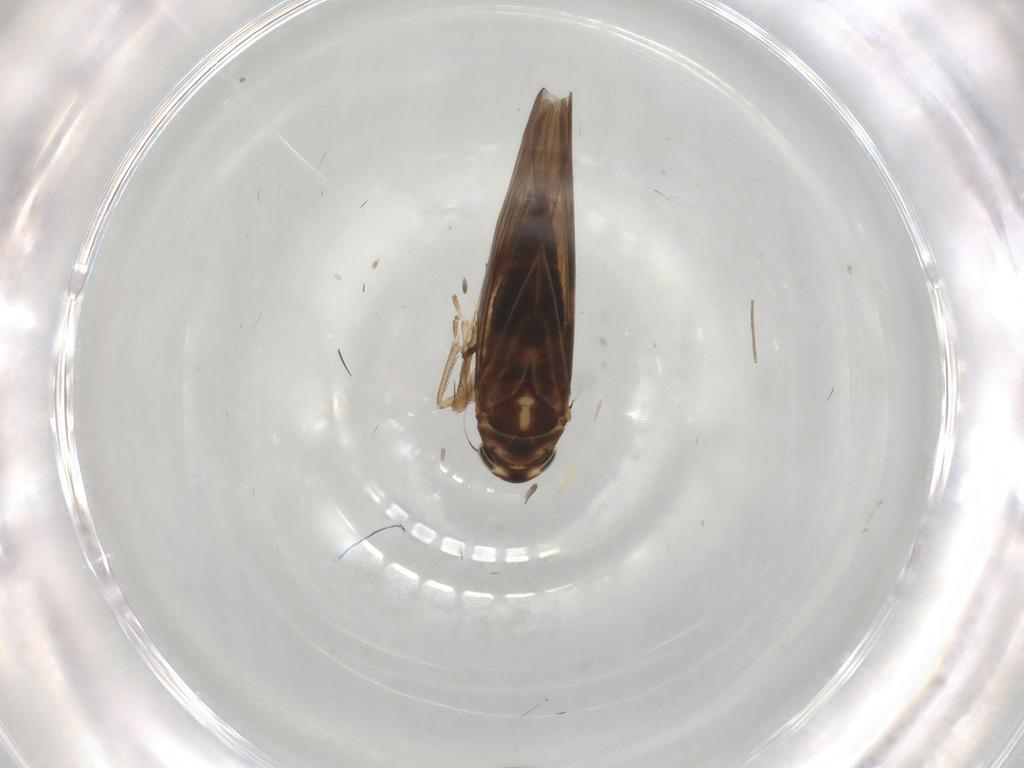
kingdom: Animalia
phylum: Arthropoda
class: Insecta
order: Hemiptera
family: Cicadellidae
